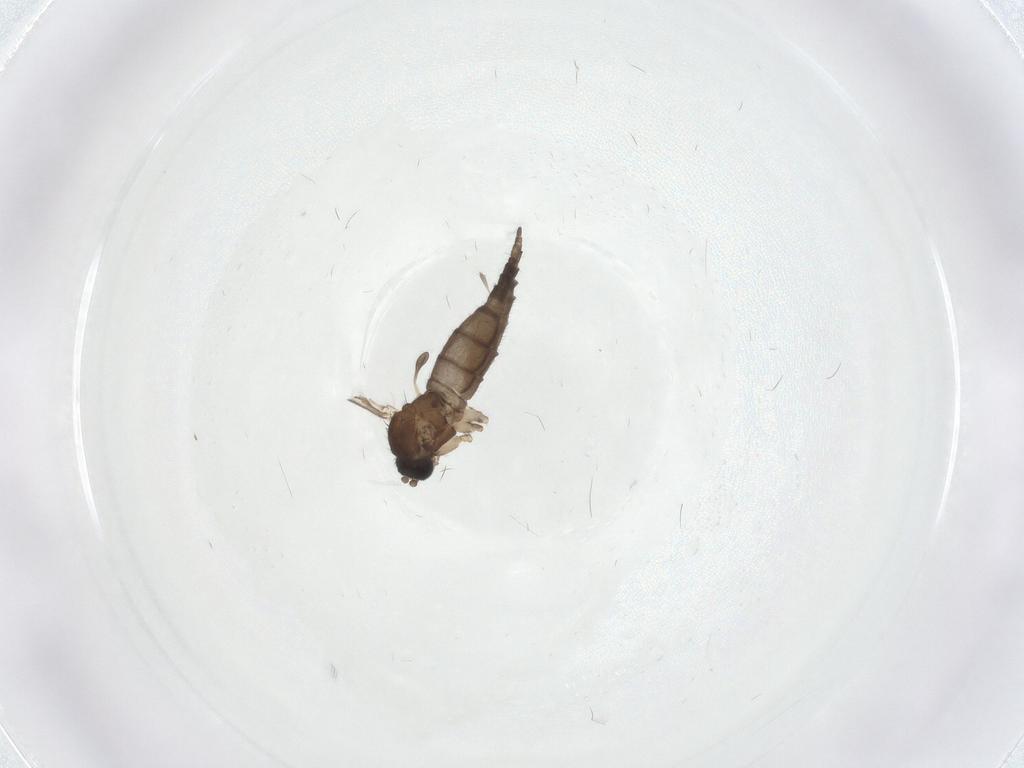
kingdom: Animalia
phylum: Arthropoda
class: Insecta
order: Diptera
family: Sciaridae
